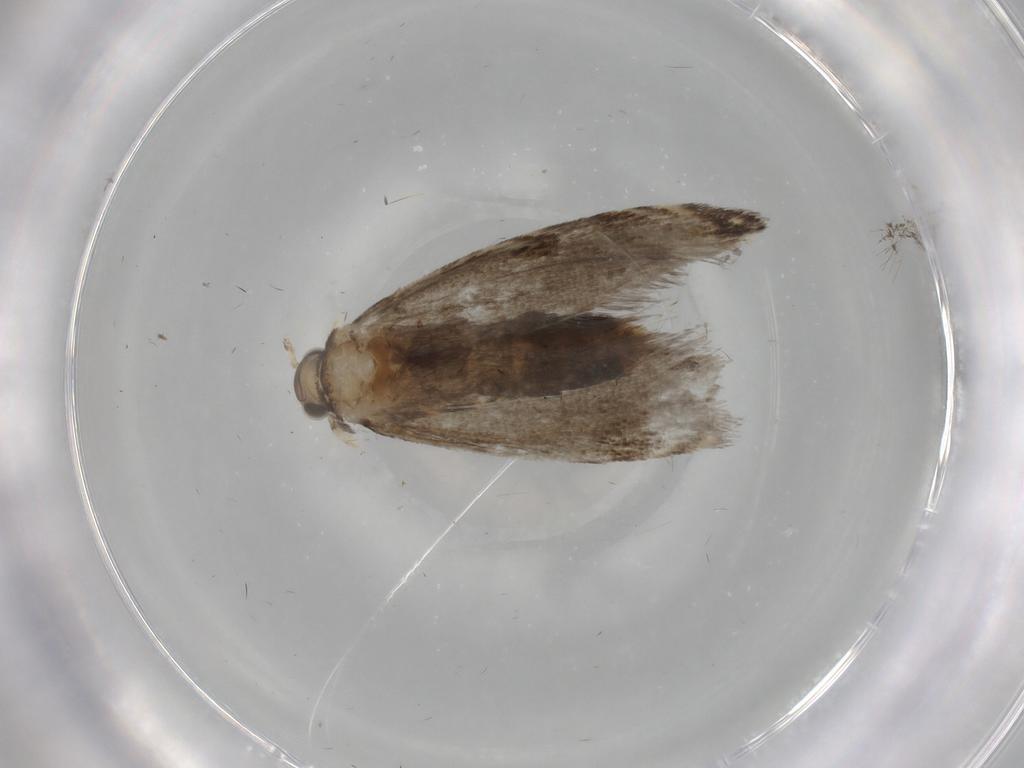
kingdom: Animalia
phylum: Arthropoda
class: Insecta
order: Lepidoptera
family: Tineidae
